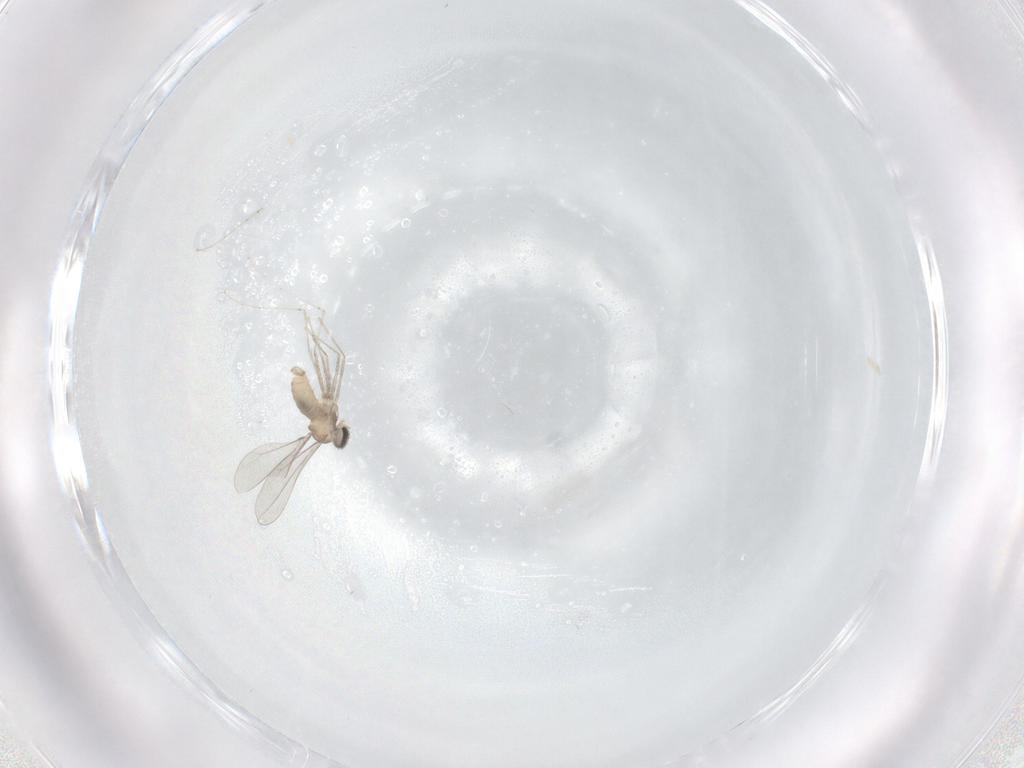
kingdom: Animalia
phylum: Arthropoda
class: Insecta
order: Diptera
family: Cecidomyiidae
